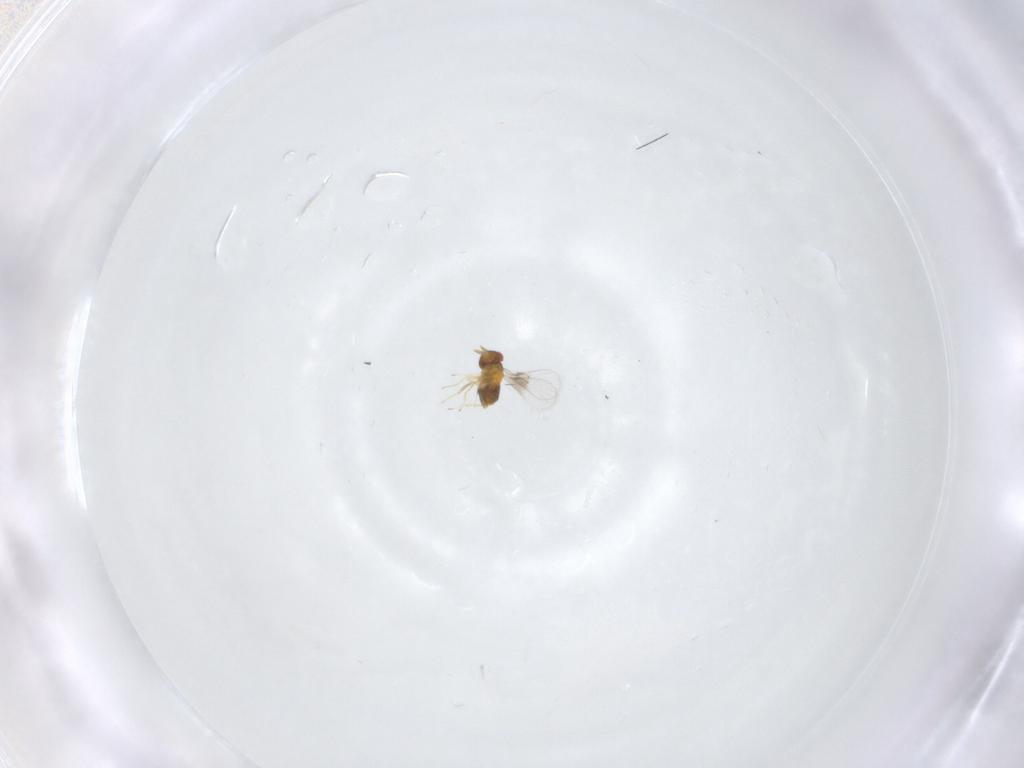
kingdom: Animalia
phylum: Arthropoda
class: Insecta
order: Hymenoptera
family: Trichogrammatidae
